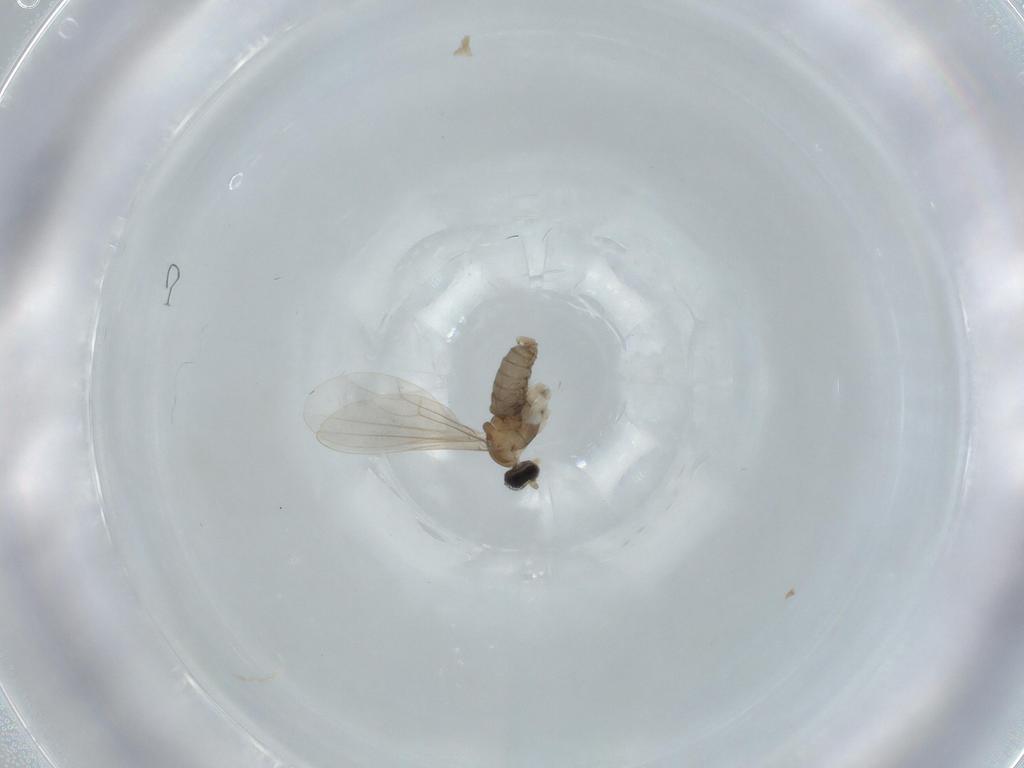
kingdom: Animalia
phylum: Arthropoda
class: Insecta
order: Diptera
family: Cecidomyiidae
